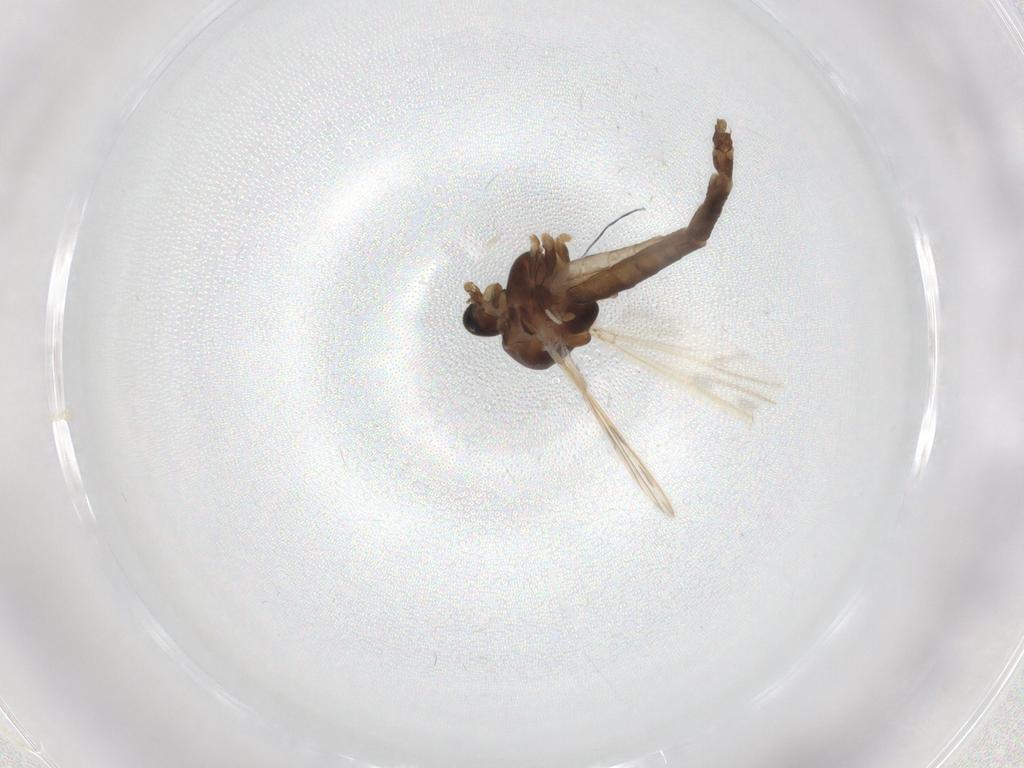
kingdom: Animalia
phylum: Arthropoda
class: Insecta
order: Diptera
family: Chironomidae
